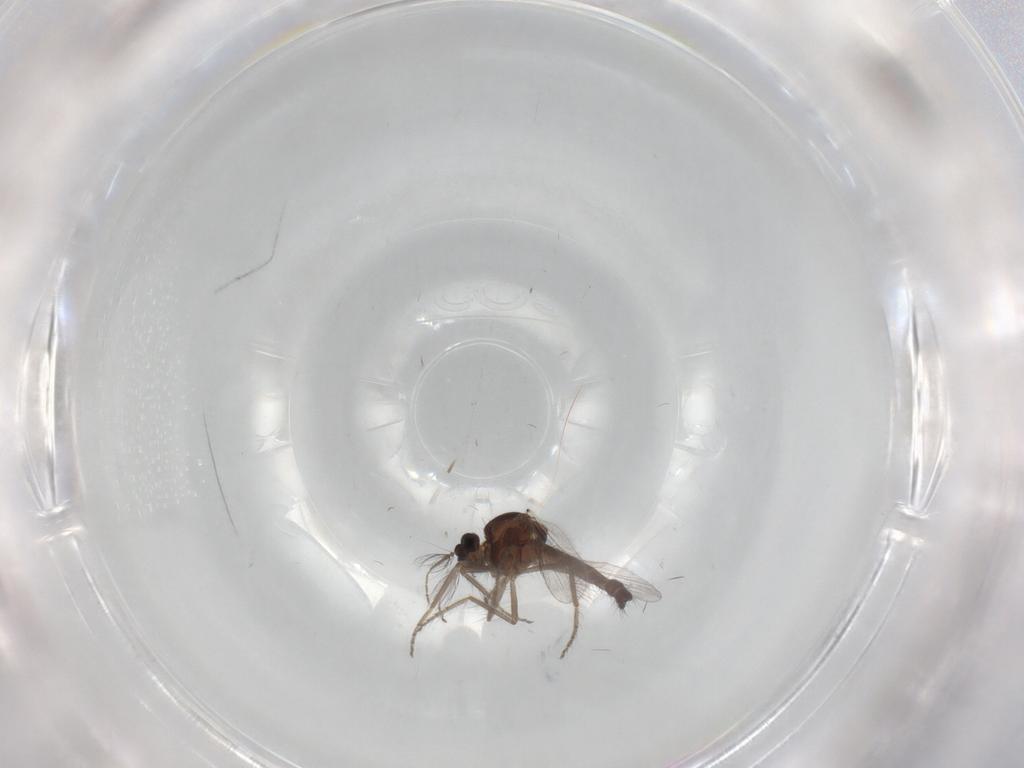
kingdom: Animalia
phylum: Arthropoda
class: Insecta
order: Diptera
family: Ceratopogonidae
